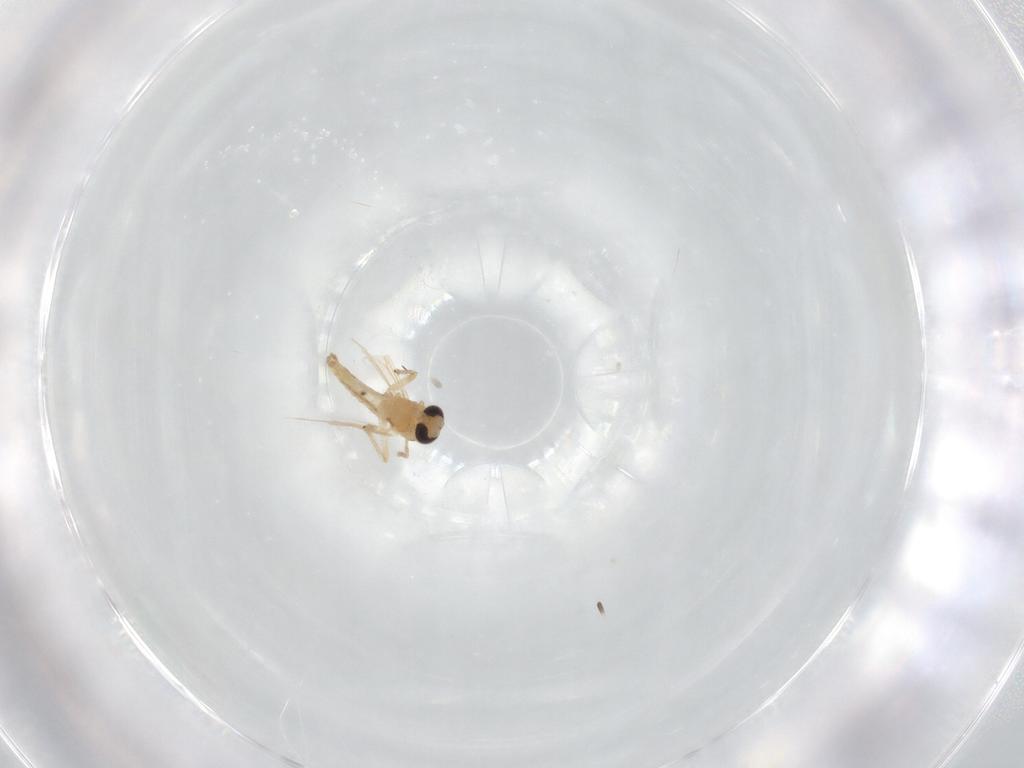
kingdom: Animalia
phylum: Arthropoda
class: Insecta
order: Diptera
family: Chironomidae
